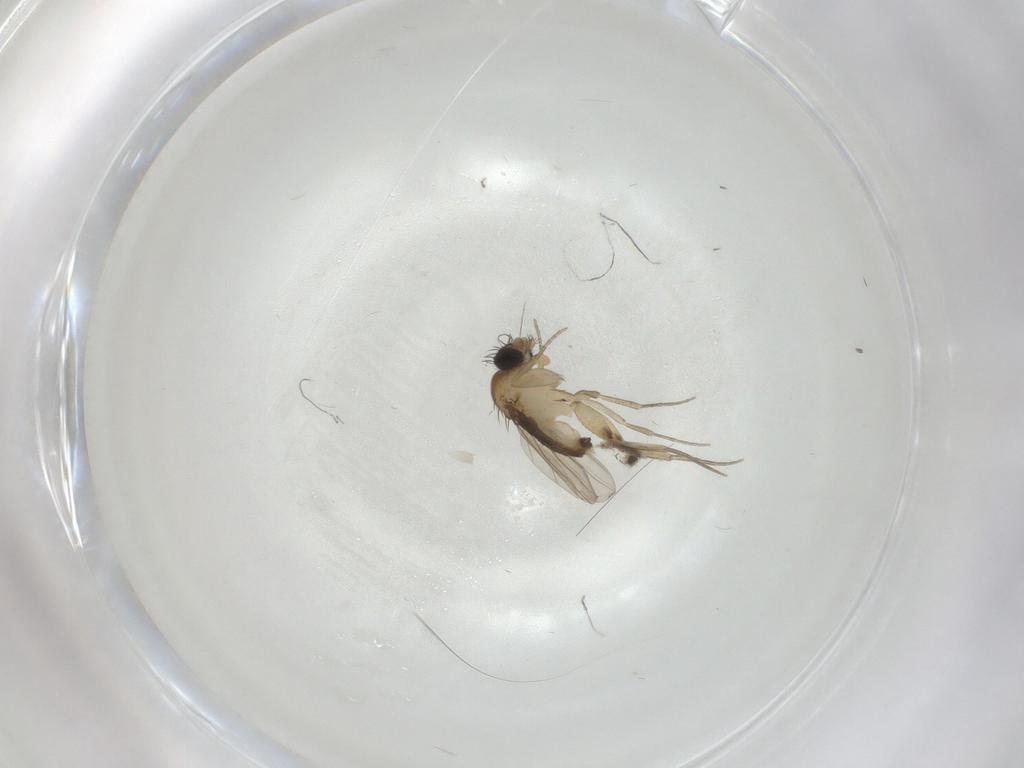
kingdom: Animalia
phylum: Arthropoda
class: Insecta
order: Diptera
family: Phoridae
